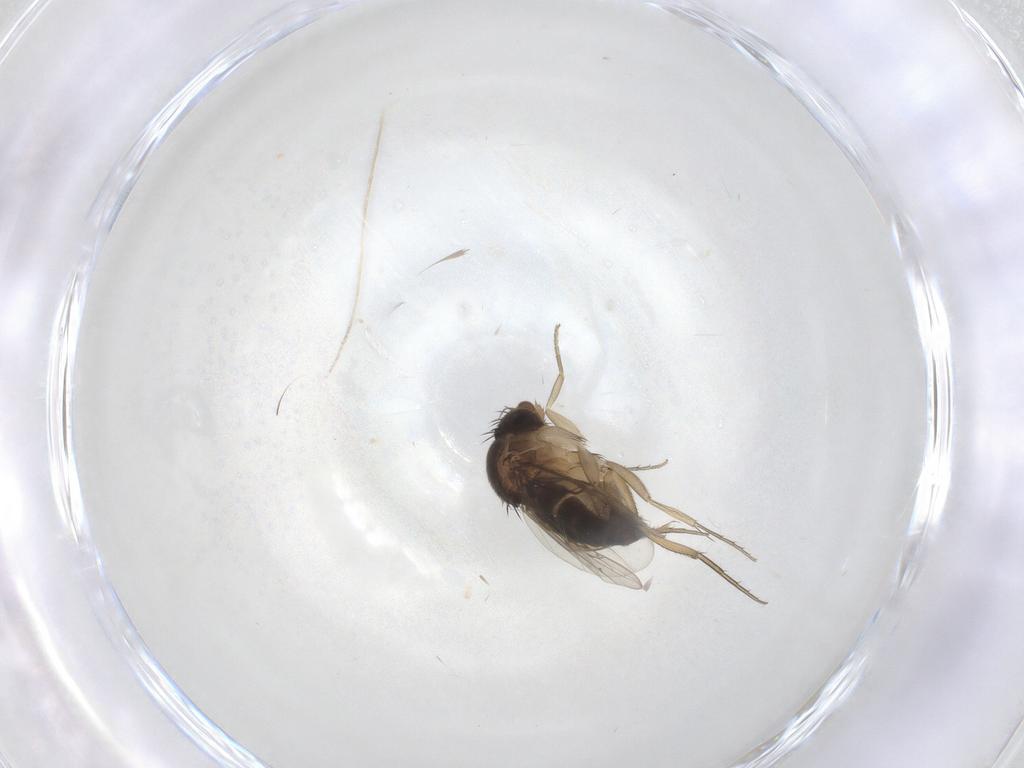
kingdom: Animalia
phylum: Arthropoda
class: Insecta
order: Diptera
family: Phoridae
